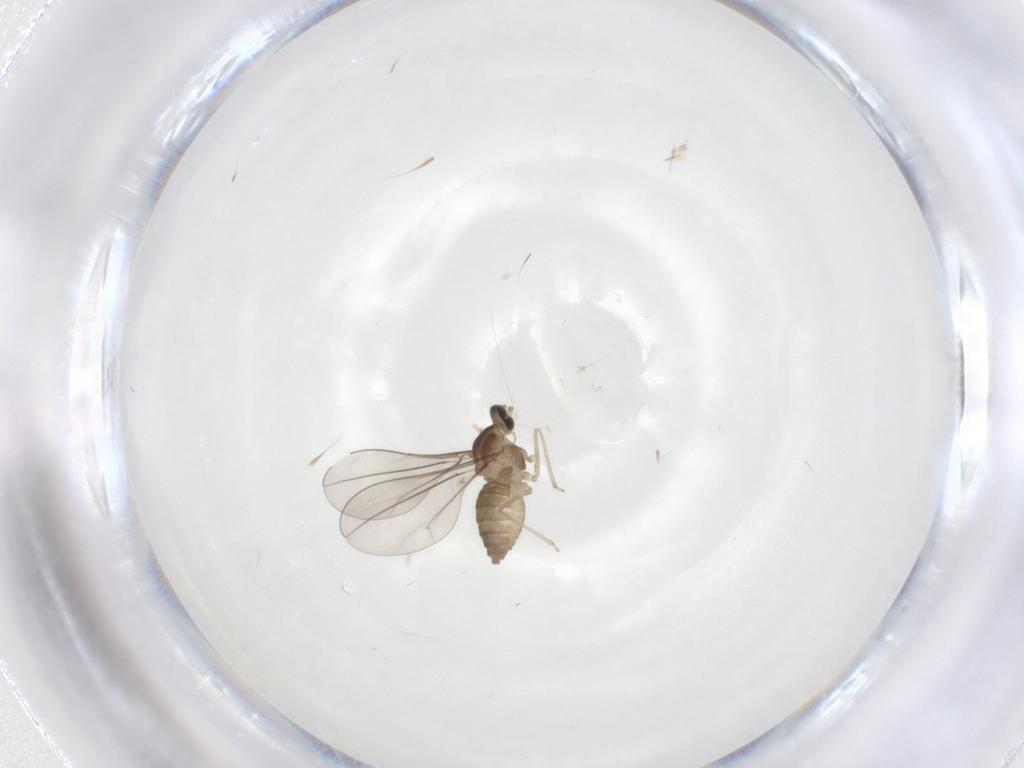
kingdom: Animalia
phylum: Arthropoda
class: Insecta
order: Diptera
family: Cecidomyiidae
